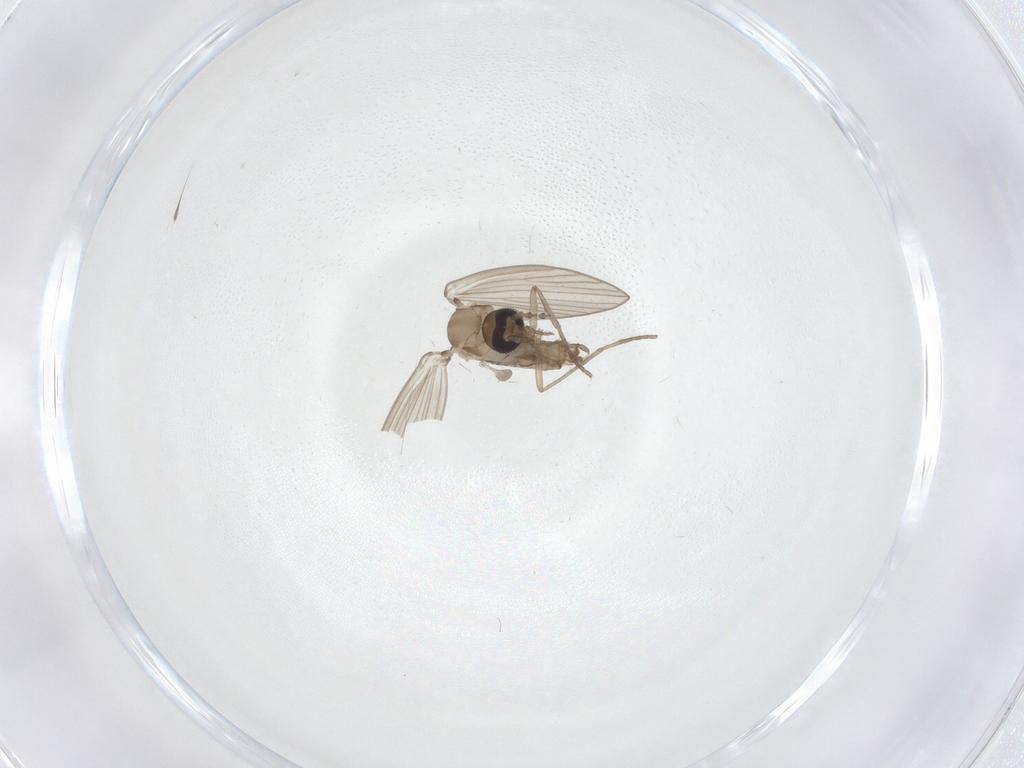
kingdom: Animalia
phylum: Arthropoda
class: Insecta
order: Diptera
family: Psychodidae
